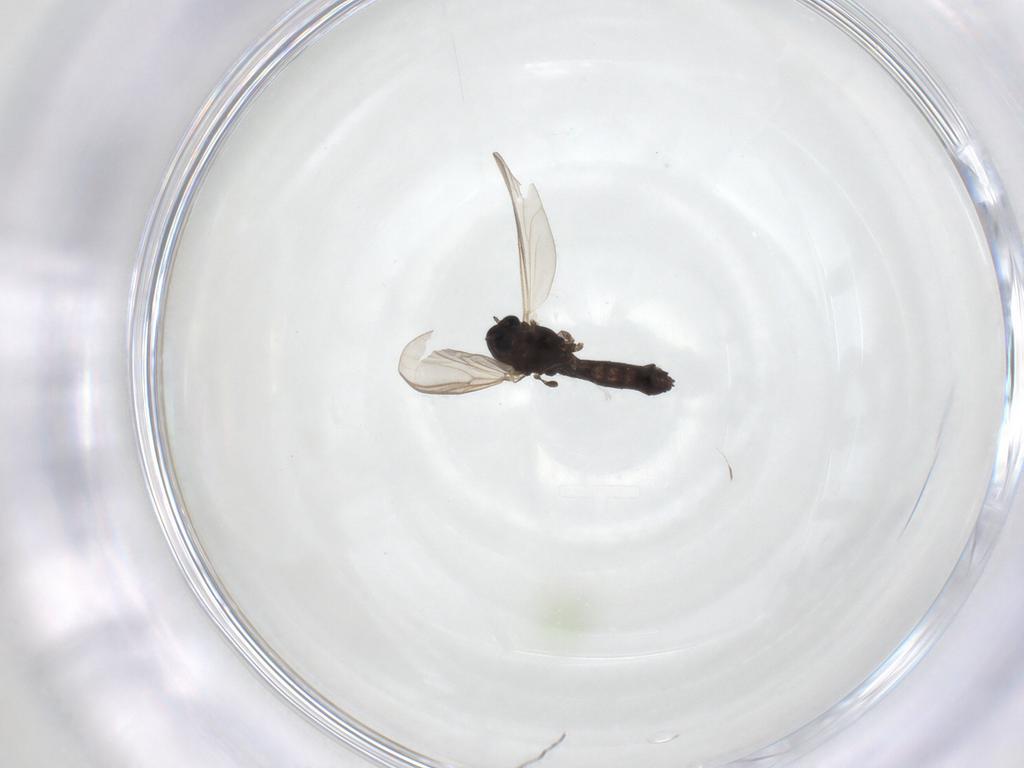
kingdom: Animalia
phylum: Arthropoda
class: Insecta
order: Diptera
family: Chironomidae
